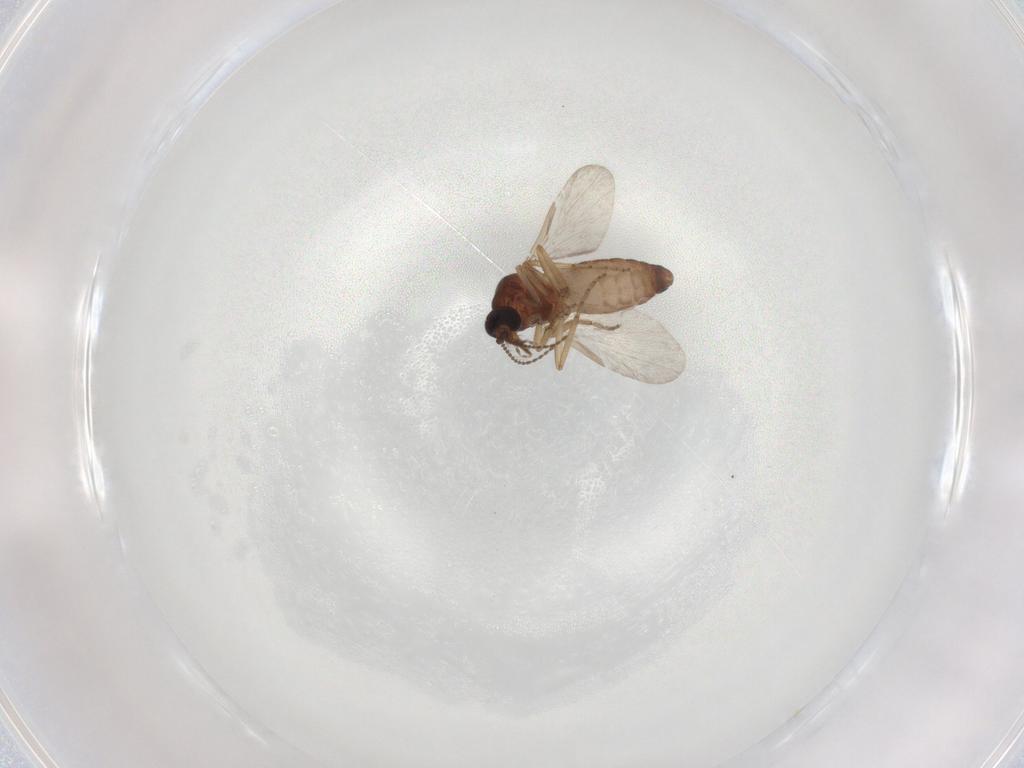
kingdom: Animalia
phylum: Arthropoda
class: Insecta
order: Diptera
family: Ceratopogonidae
